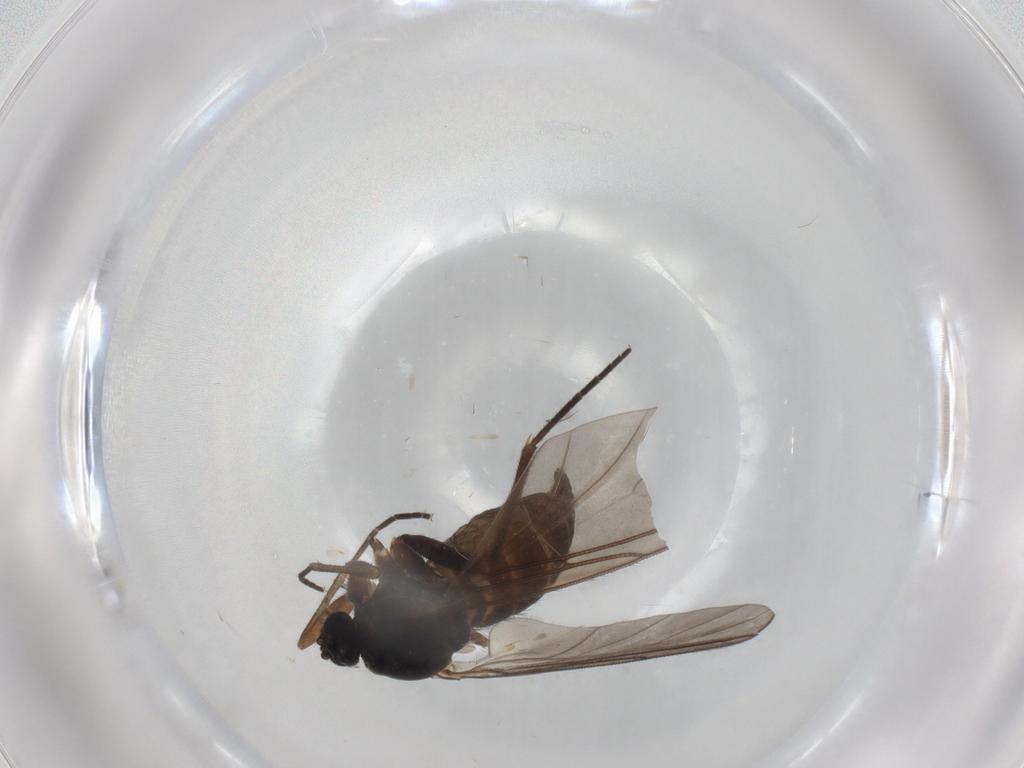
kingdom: Animalia
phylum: Arthropoda
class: Insecta
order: Diptera
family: Sciaridae
